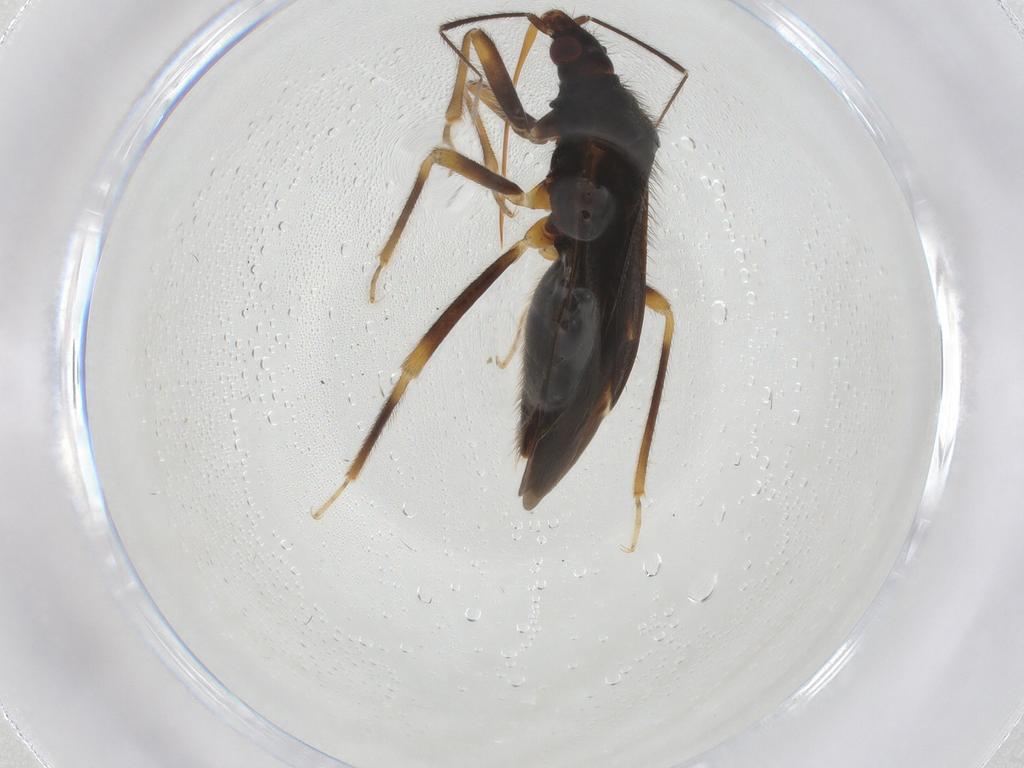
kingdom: Animalia
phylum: Arthropoda
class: Insecta
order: Hemiptera
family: Anthocoridae
